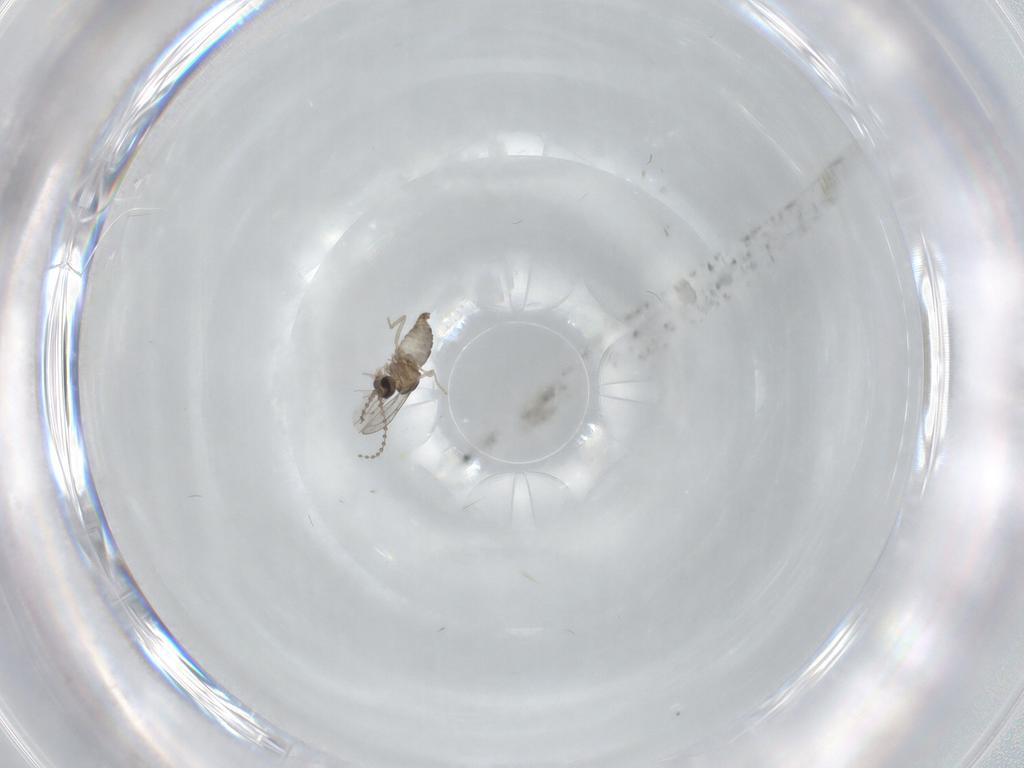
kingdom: Animalia
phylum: Arthropoda
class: Insecta
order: Diptera
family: Cecidomyiidae
